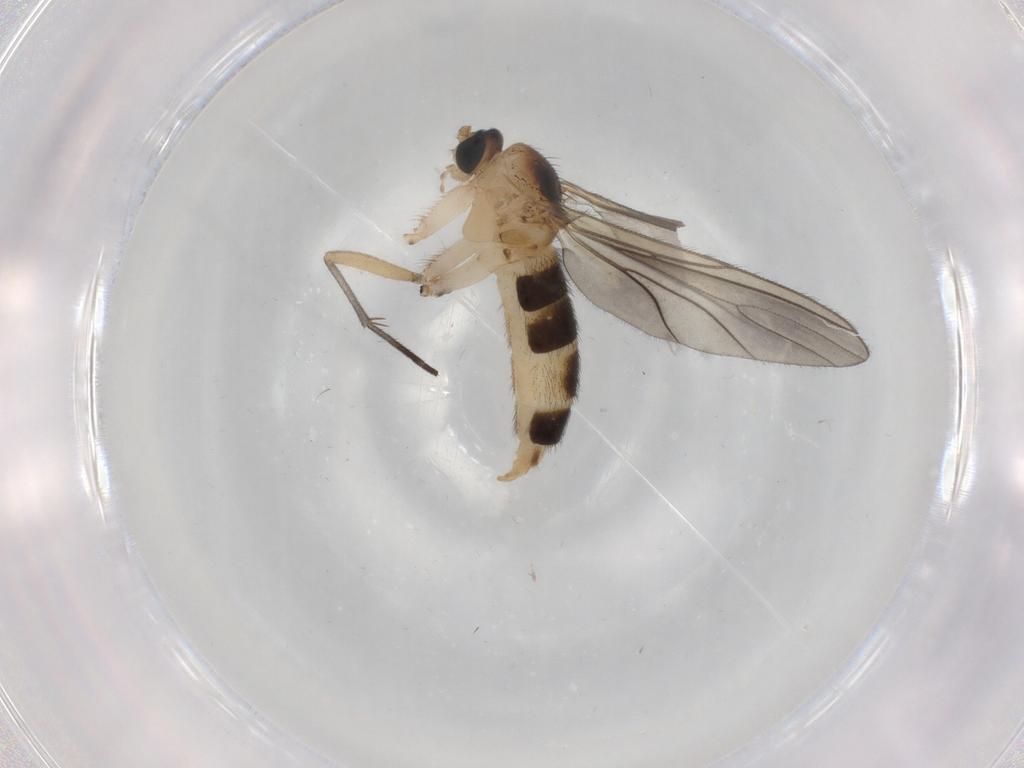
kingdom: Animalia
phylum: Arthropoda
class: Insecta
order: Diptera
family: Sciaridae
